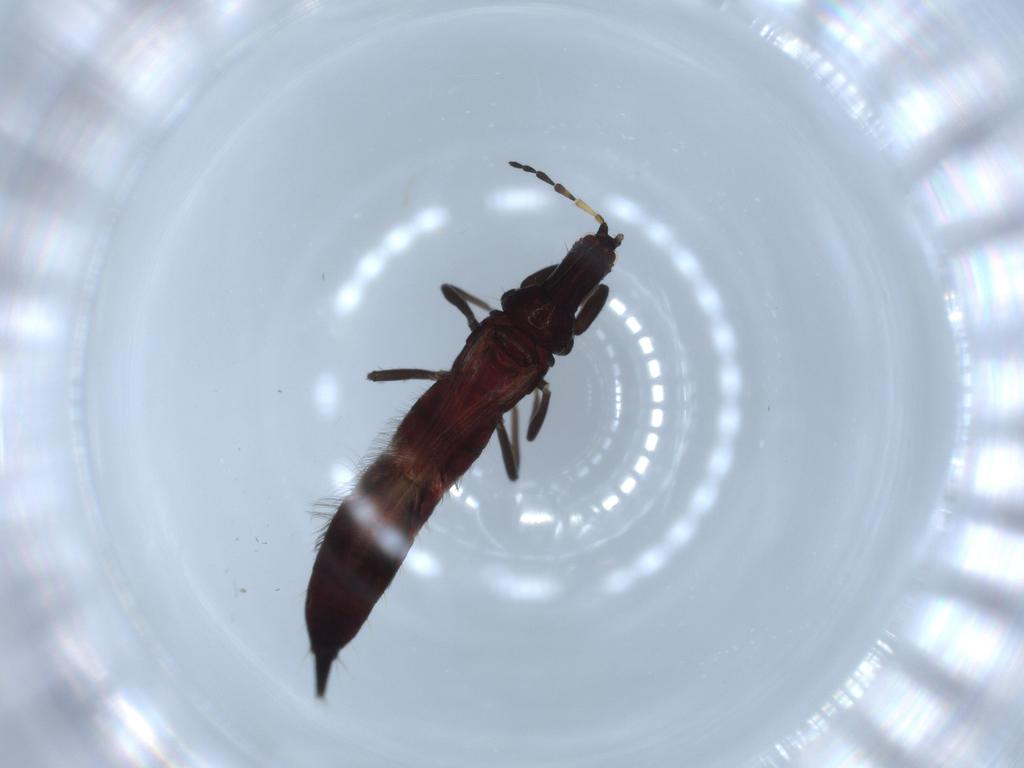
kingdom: Animalia
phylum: Arthropoda
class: Insecta
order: Thysanoptera
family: Phlaeothripidae
